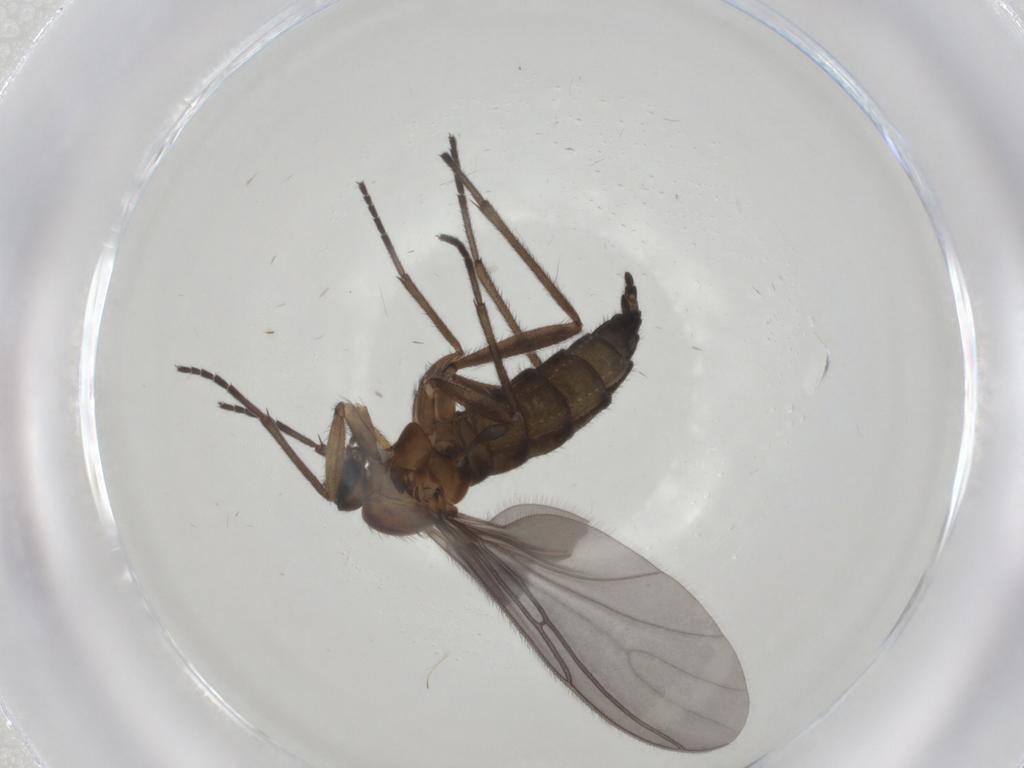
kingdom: Animalia
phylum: Arthropoda
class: Insecta
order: Diptera
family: Chironomidae
